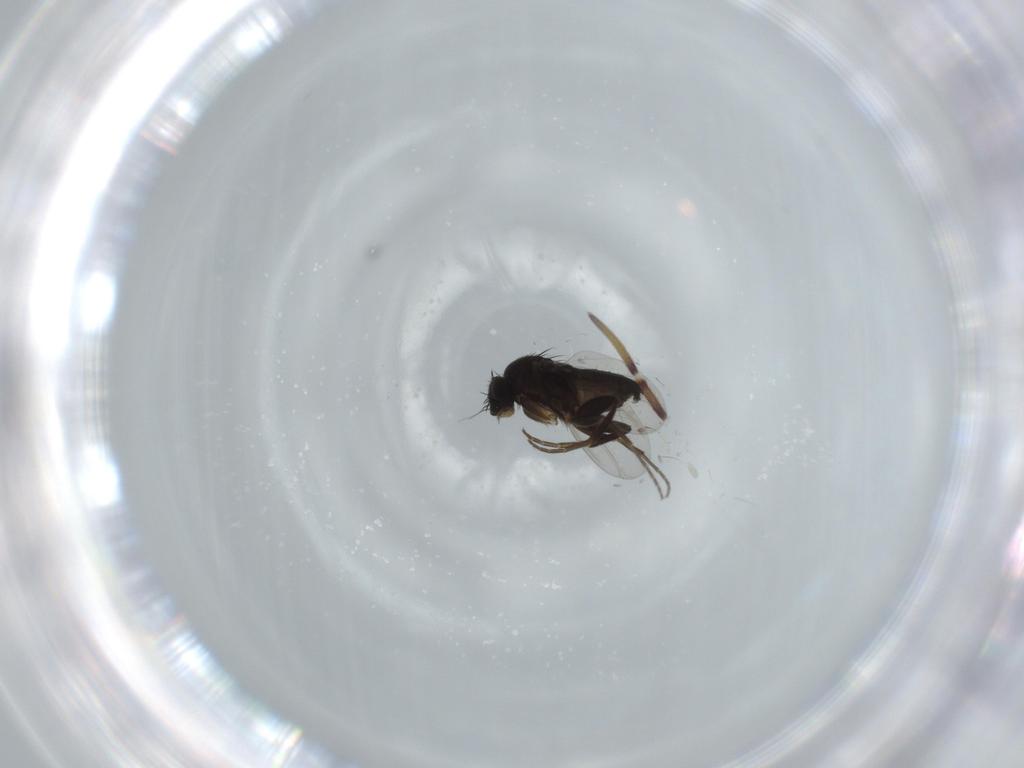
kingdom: Animalia
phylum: Arthropoda
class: Insecta
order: Diptera
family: Phoridae
